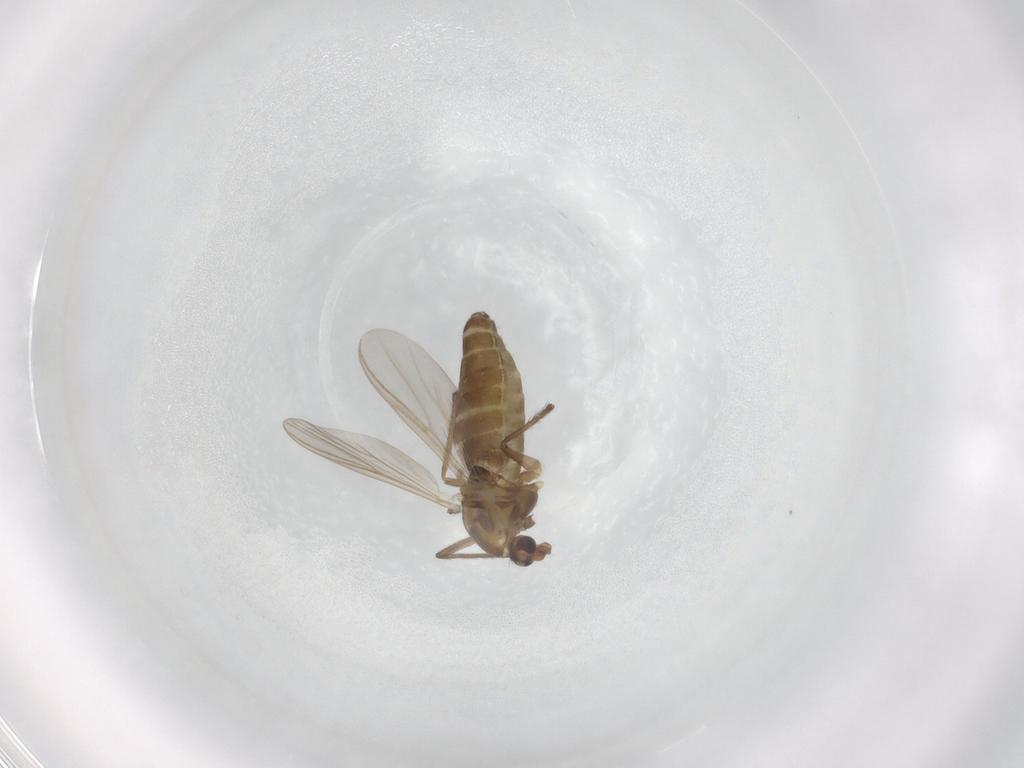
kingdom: Animalia
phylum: Arthropoda
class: Insecta
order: Diptera
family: Chironomidae
